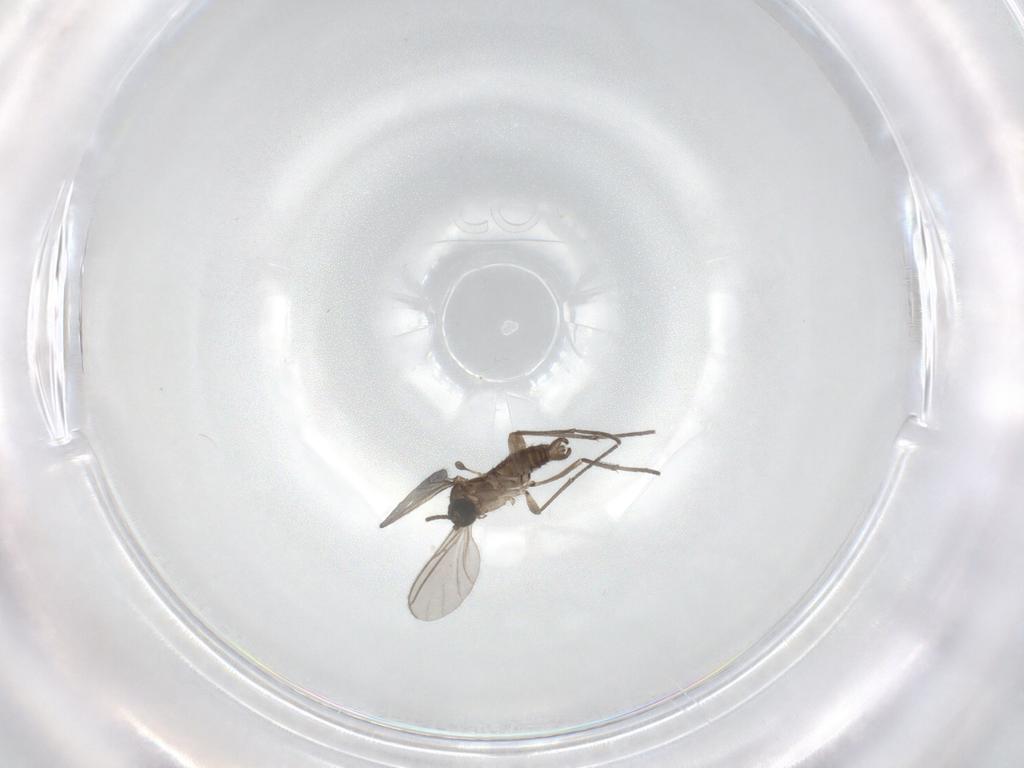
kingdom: Animalia
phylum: Arthropoda
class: Insecta
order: Diptera
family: Sciaridae
